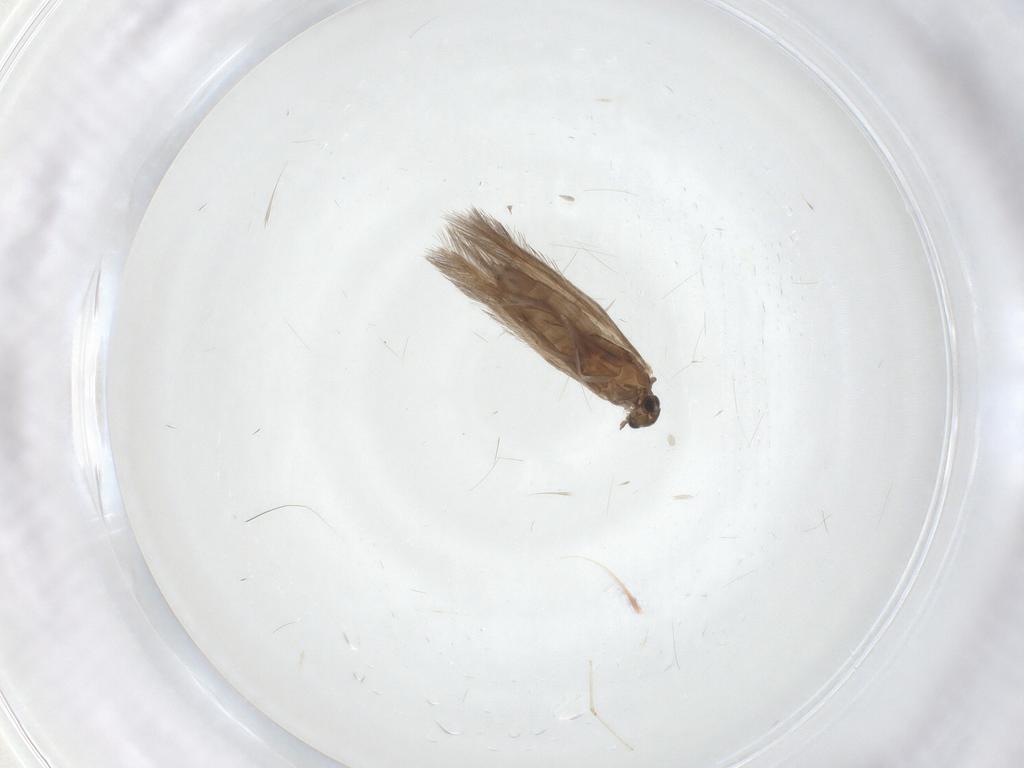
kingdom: Animalia
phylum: Arthropoda
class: Insecta
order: Trichoptera
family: Hydroptilidae
